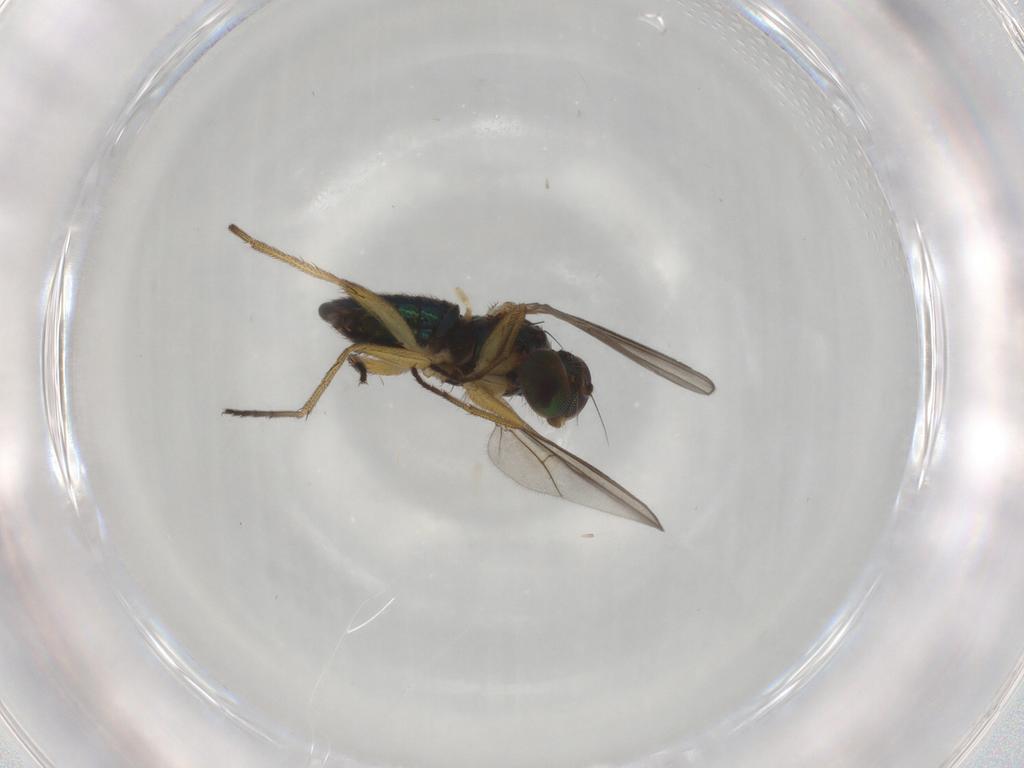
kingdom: Animalia
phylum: Arthropoda
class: Insecta
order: Diptera
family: Dolichopodidae
